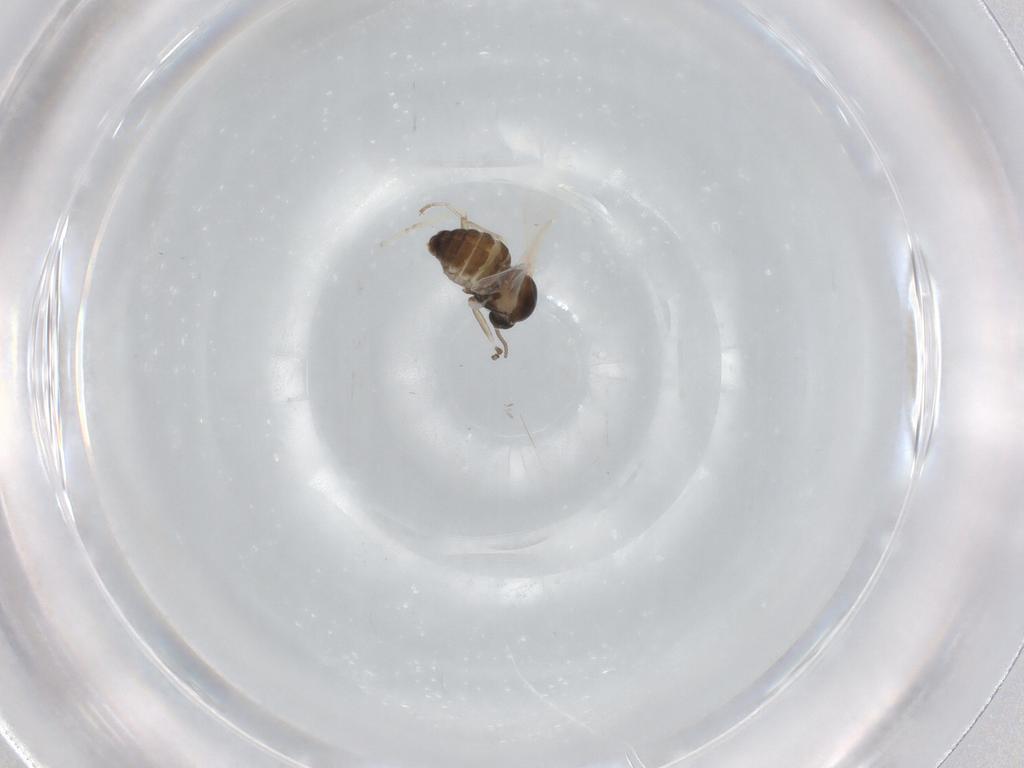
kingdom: Animalia
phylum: Arthropoda
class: Insecta
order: Diptera
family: Cecidomyiidae
